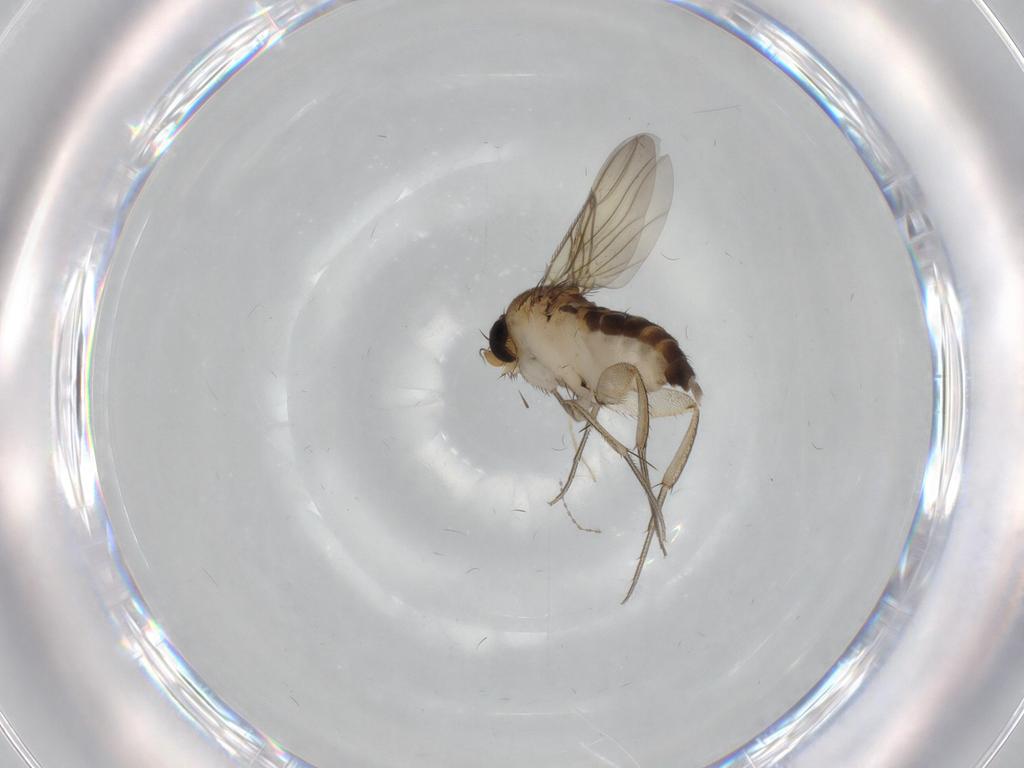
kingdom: Animalia
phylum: Arthropoda
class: Insecta
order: Diptera
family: Phoridae
